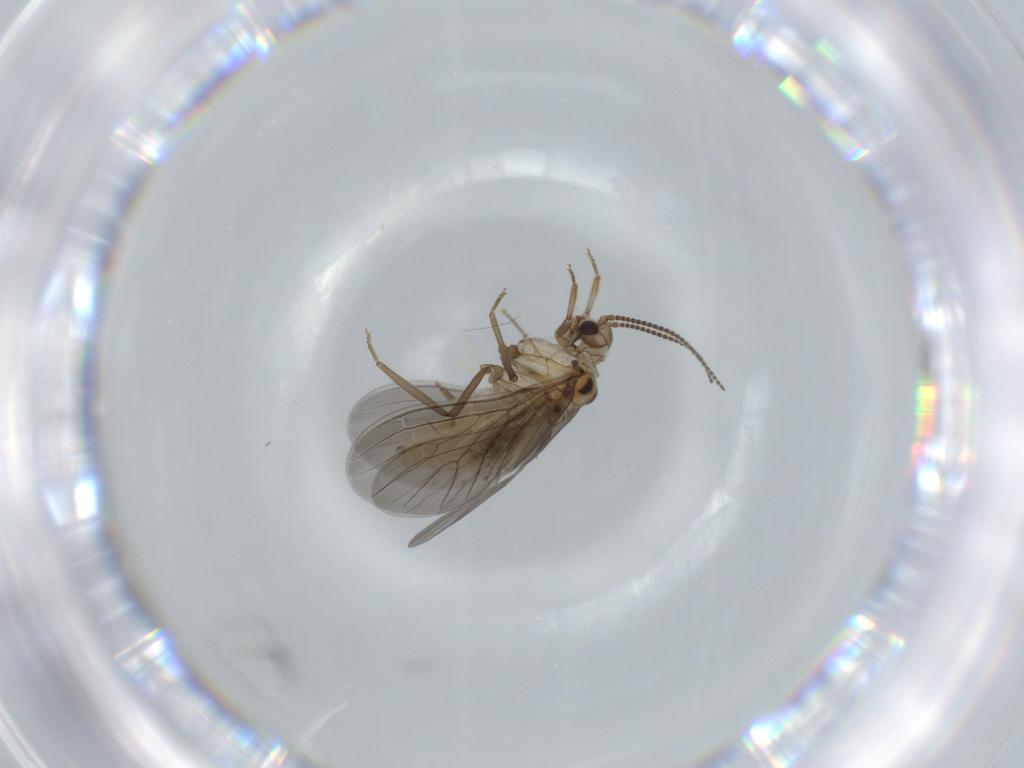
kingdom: Animalia
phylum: Arthropoda
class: Insecta
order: Neuroptera
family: Coniopterygidae
